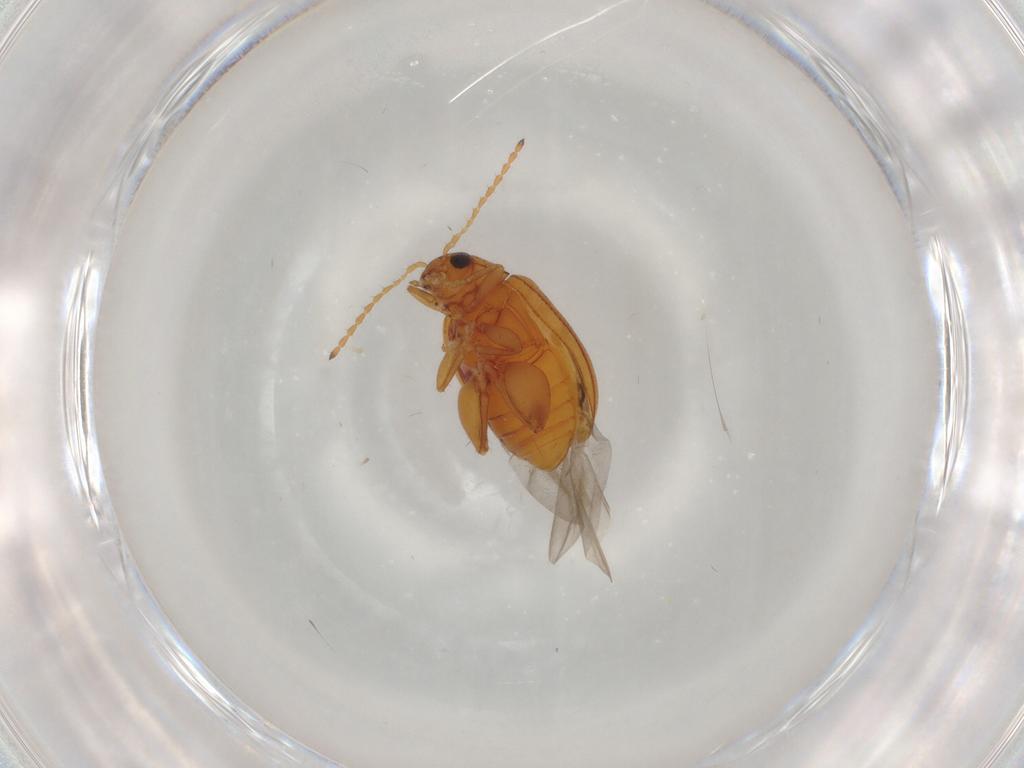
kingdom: Animalia
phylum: Arthropoda
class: Insecta
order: Coleoptera
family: Chrysomelidae
